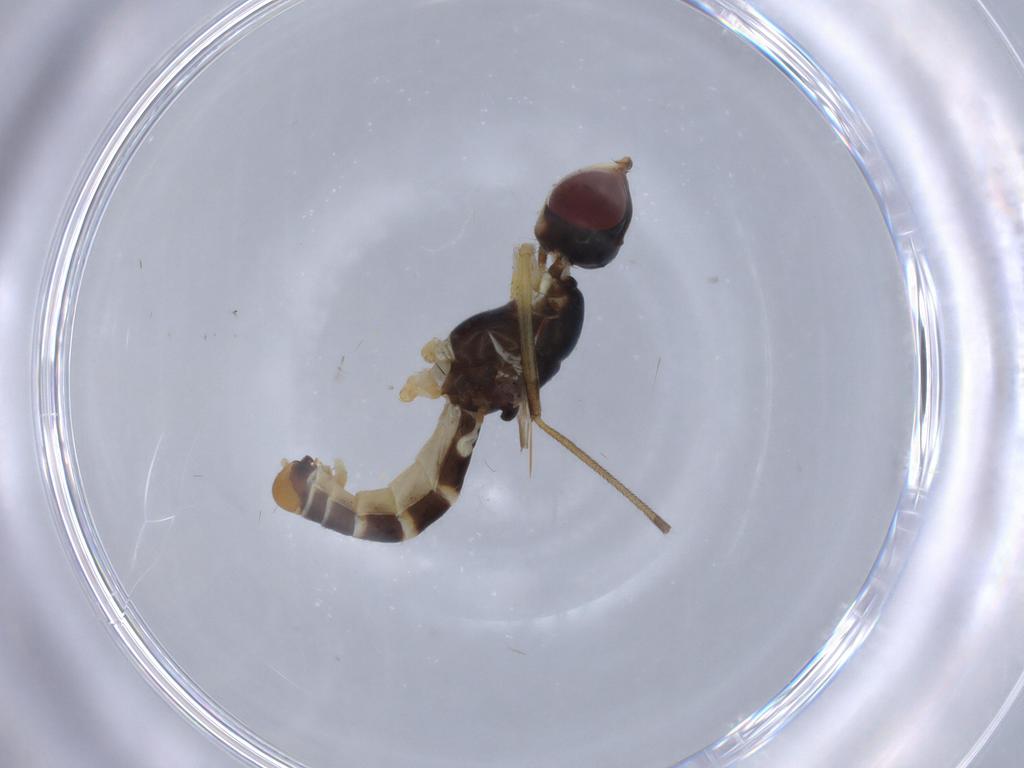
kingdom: Animalia
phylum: Arthropoda
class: Insecta
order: Diptera
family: Micropezidae
